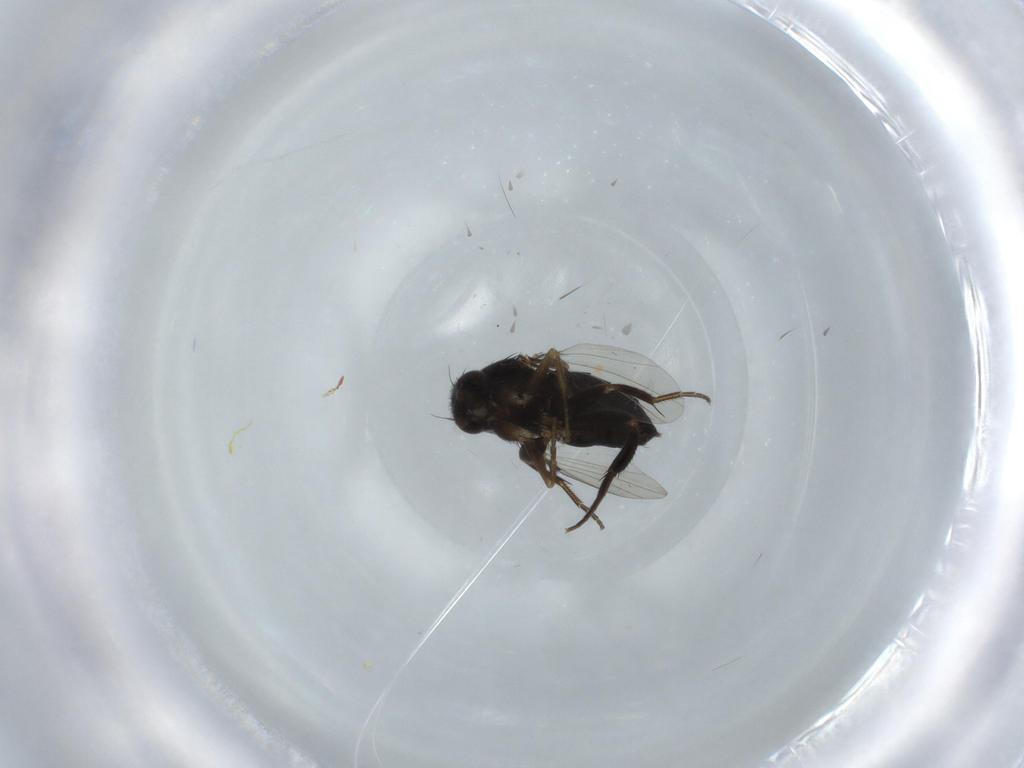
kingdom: Animalia
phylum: Arthropoda
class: Insecta
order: Diptera
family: Phoridae
